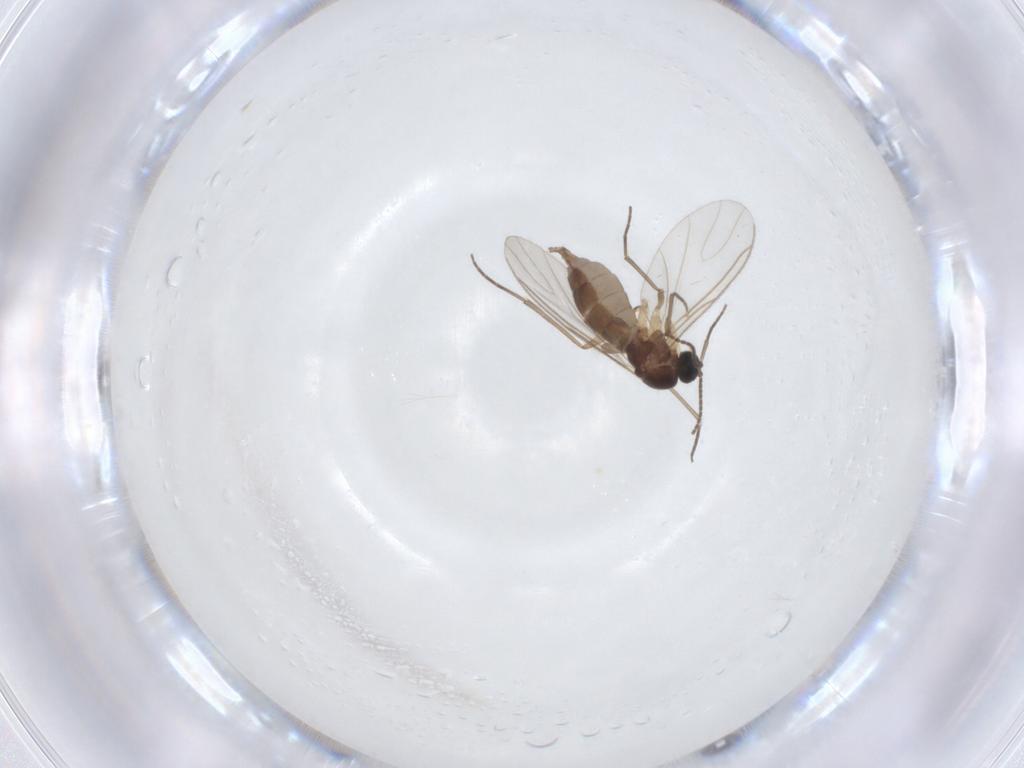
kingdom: Animalia
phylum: Arthropoda
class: Insecta
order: Diptera
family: Sciaridae
